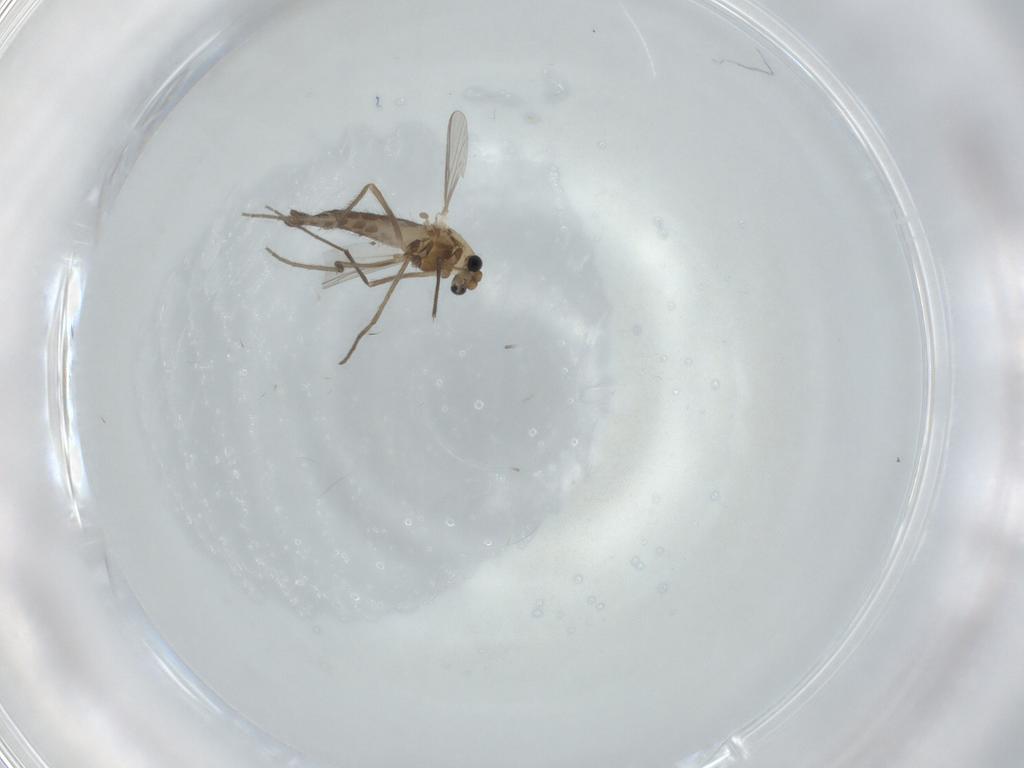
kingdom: Animalia
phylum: Arthropoda
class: Insecta
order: Diptera
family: Chironomidae
